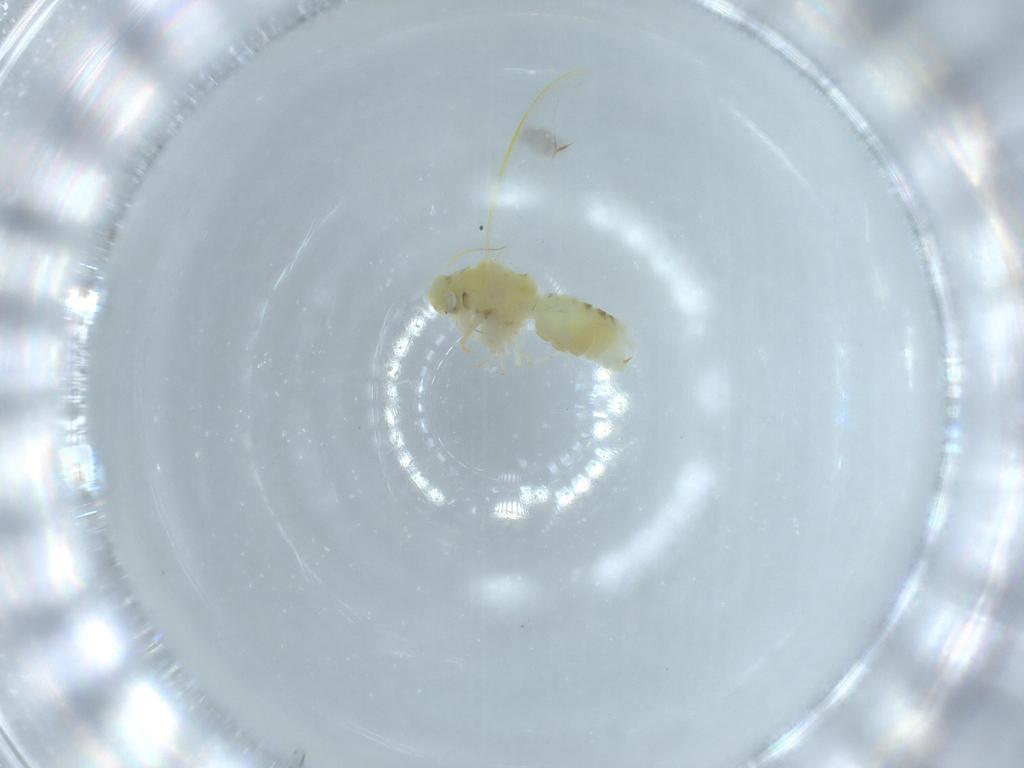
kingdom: Animalia
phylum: Arthropoda
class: Insecta
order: Hemiptera
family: Aleyrodidae
